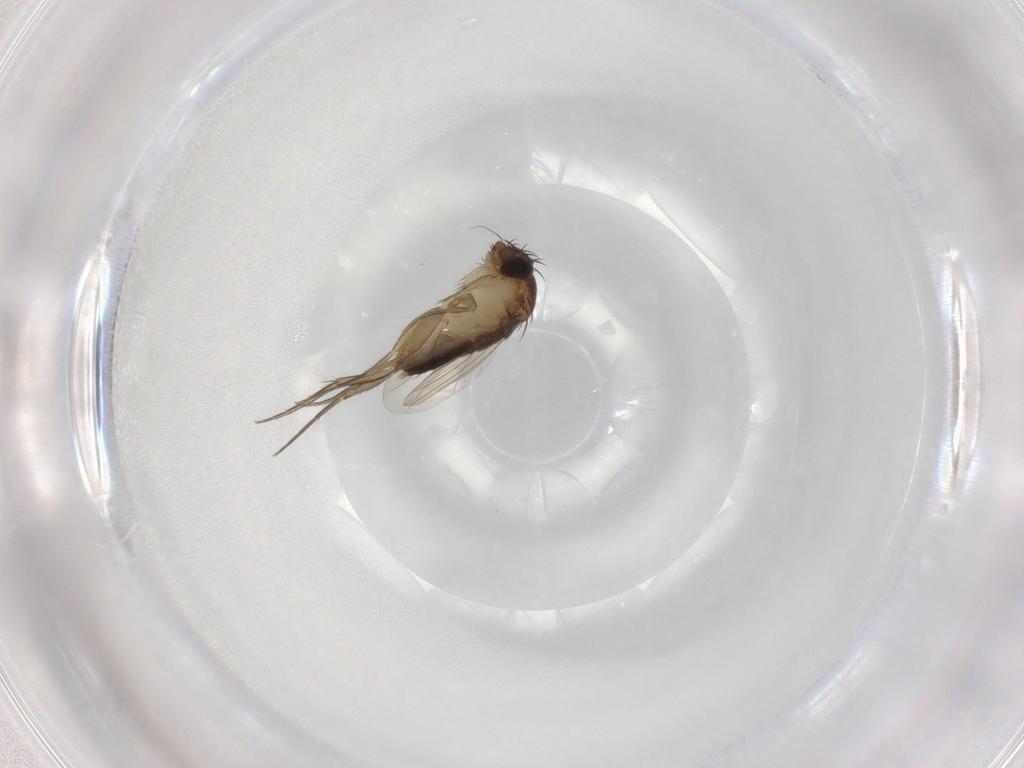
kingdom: Animalia
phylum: Arthropoda
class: Insecta
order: Diptera
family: Phoridae
